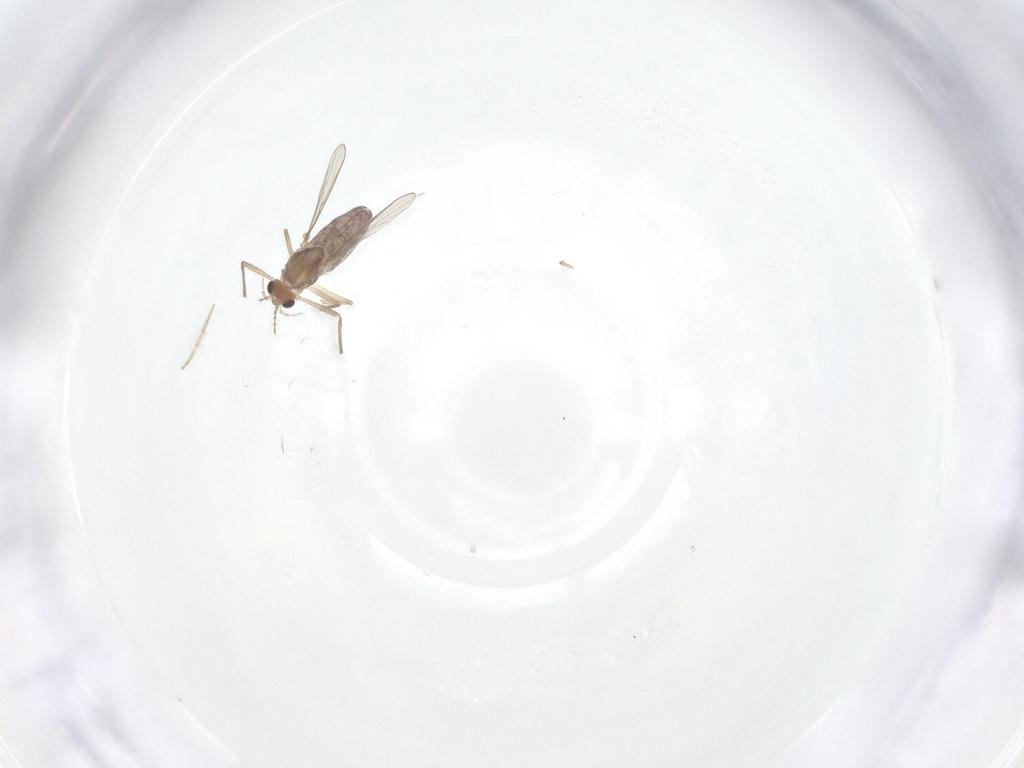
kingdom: Animalia
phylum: Arthropoda
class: Insecta
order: Diptera
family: Chironomidae
